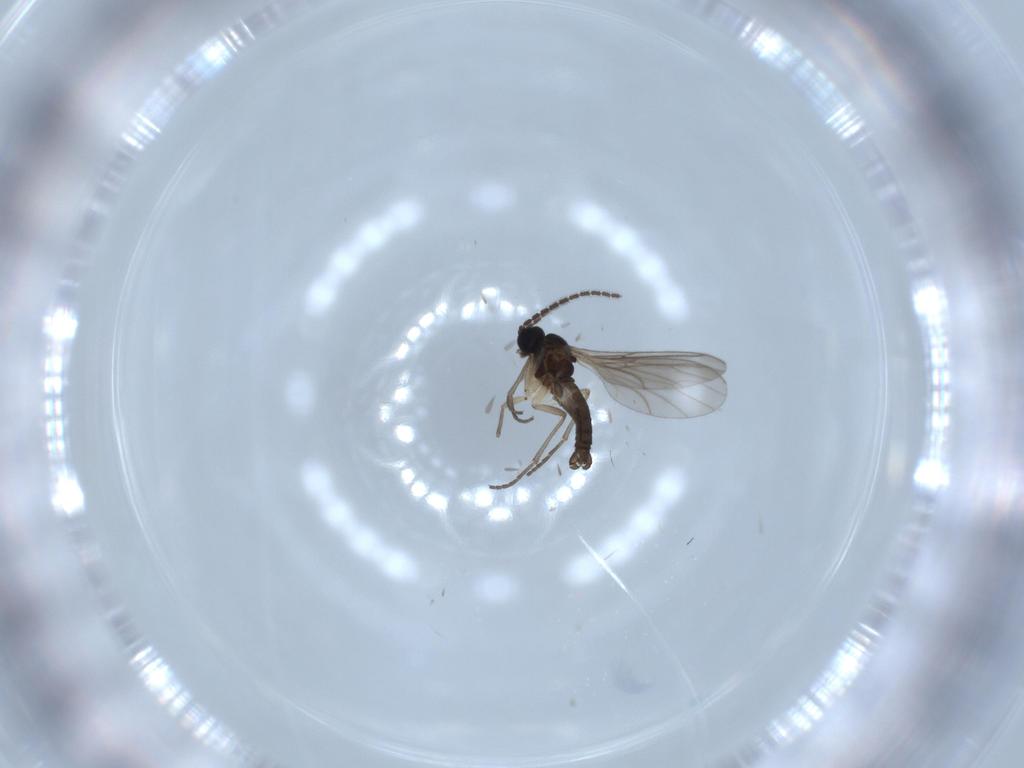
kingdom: Animalia
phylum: Arthropoda
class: Insecta
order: Diptera
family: Sciaridae
